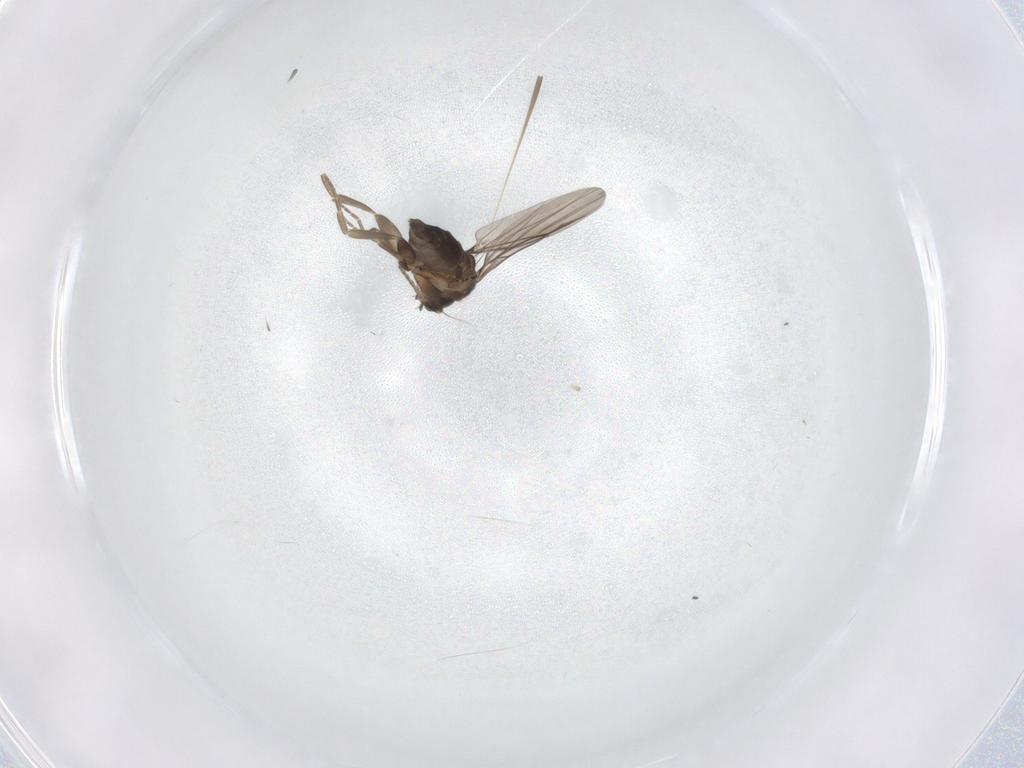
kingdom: Animalia
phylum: Arthropoda
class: Insecta
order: Diptera
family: Phoridae
